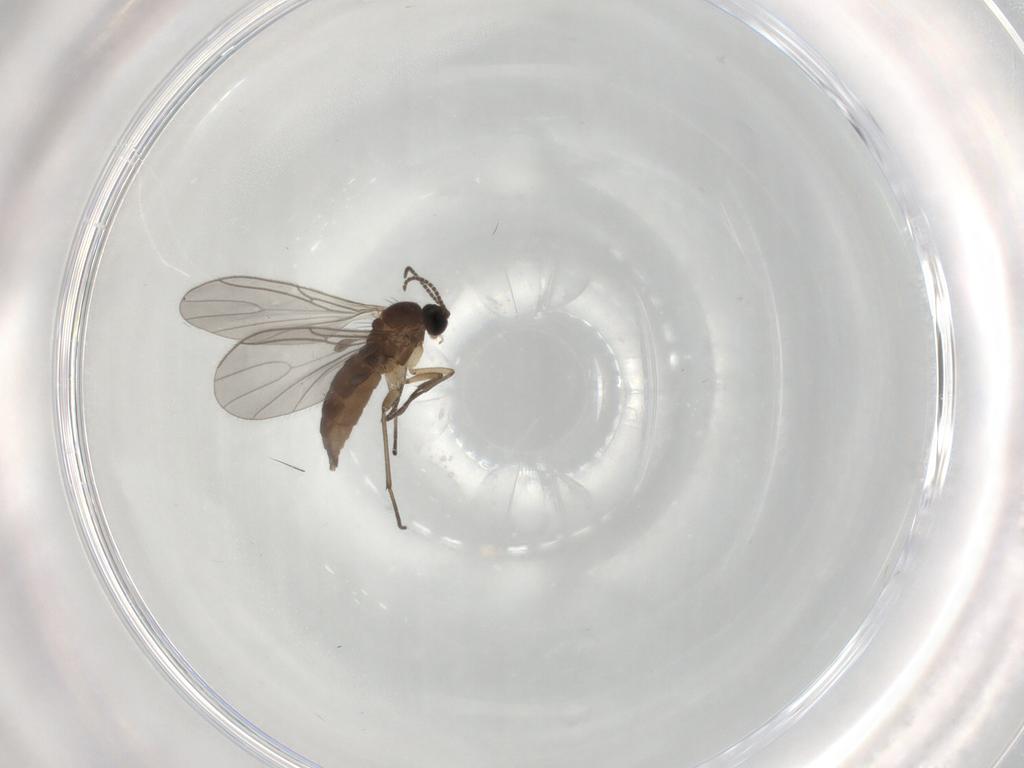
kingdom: Animalia
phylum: Arthropoda
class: Insecta
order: Diptera
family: Sciaridae
